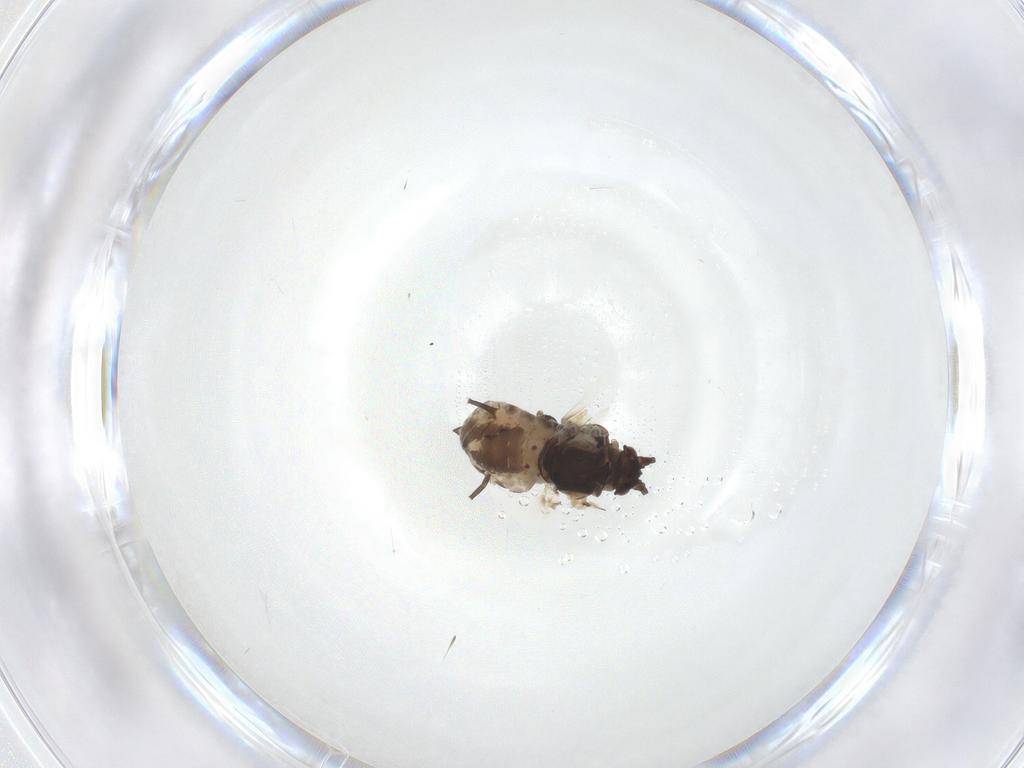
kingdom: Animalia
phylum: Arthropoda
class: Insecta
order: Hemiptera
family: Aphididae
